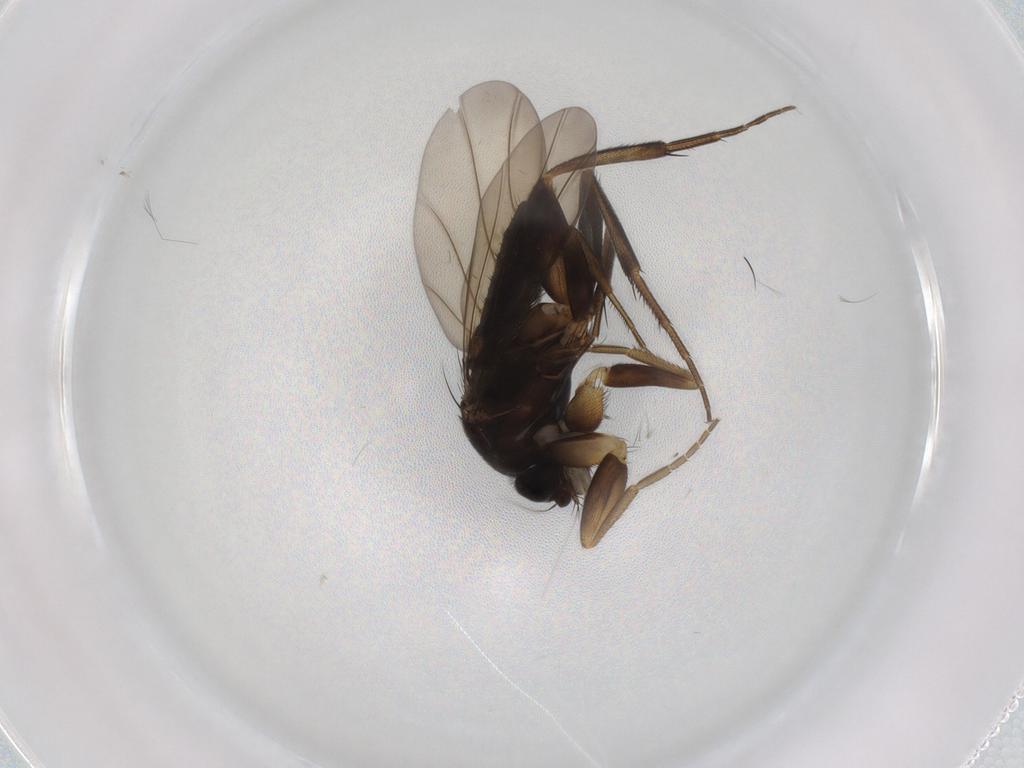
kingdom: Animalia
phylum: Arthropoda
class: Insecta
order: Diptera
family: Phoridae
